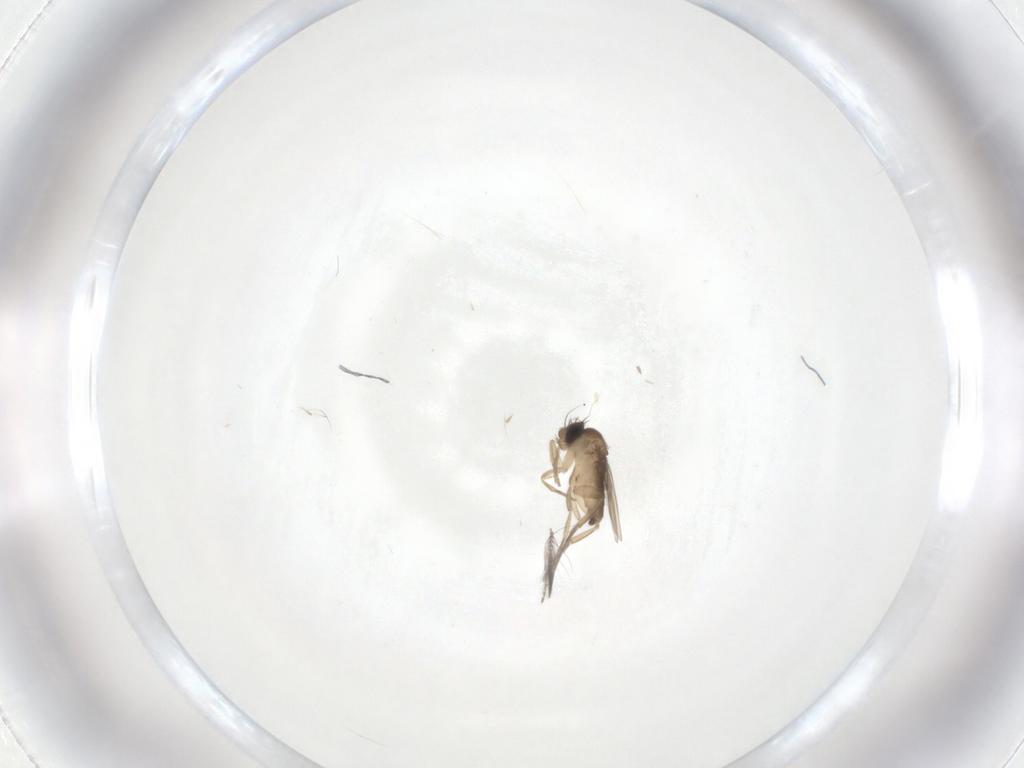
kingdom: Animalia
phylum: Arthropoda
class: Insecta
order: Diptera
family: Phoridae
